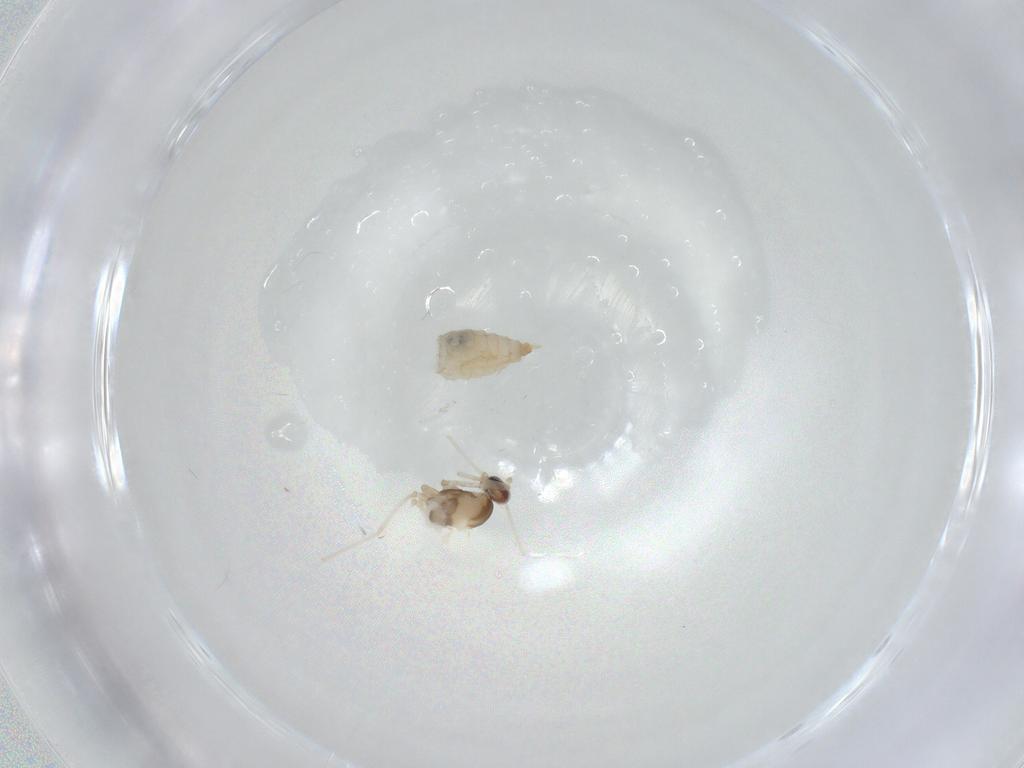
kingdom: Animalia
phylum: Arthropoda
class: Insecta
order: Diptera
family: Cecidomyiidae
